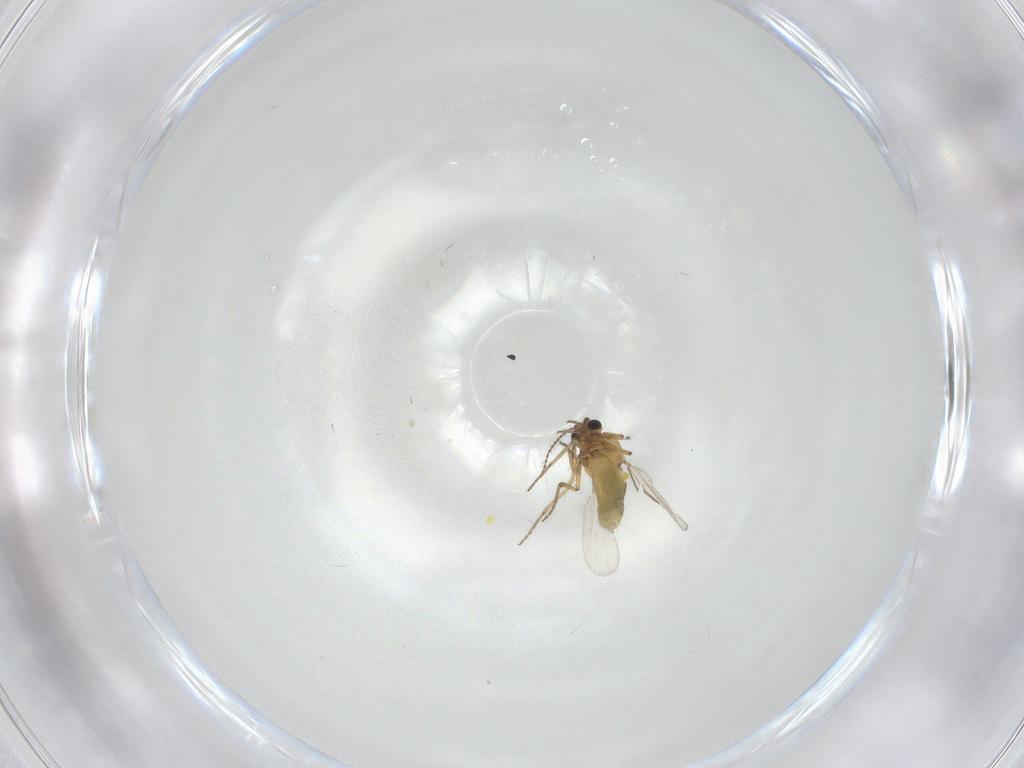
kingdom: Animalia
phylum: Arthropoda
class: Insecta
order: Diptera
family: Ceratopogonidae
